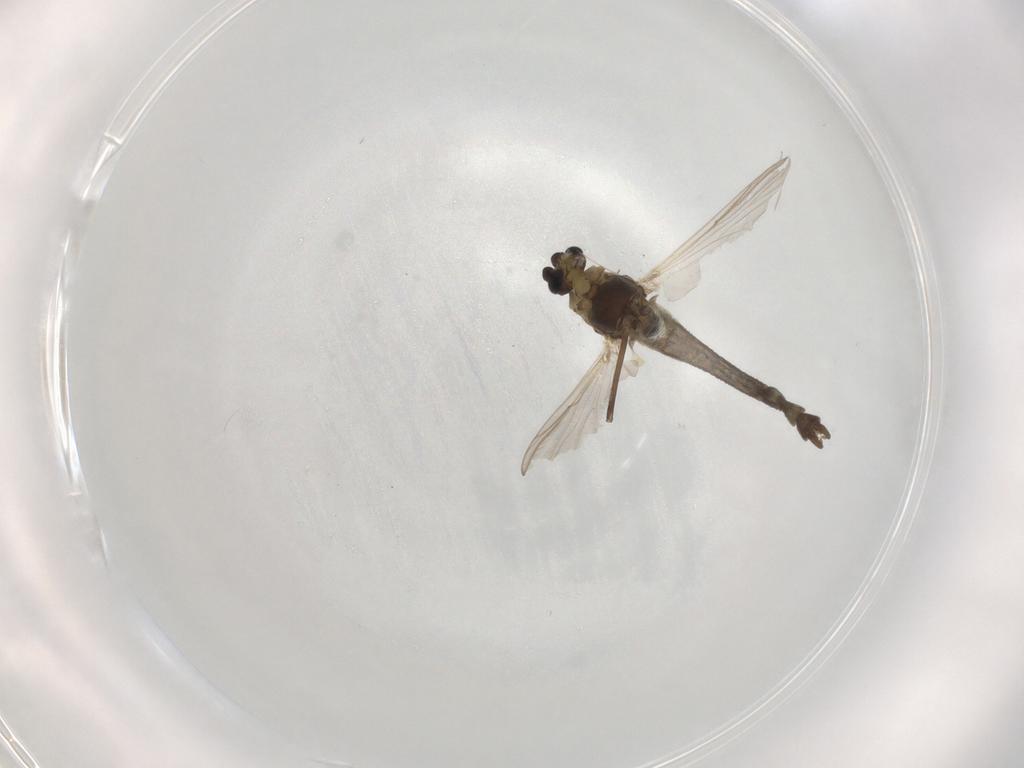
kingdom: Animalia
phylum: Arthropoda
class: Insecta
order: Diptera
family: Chironomidae
